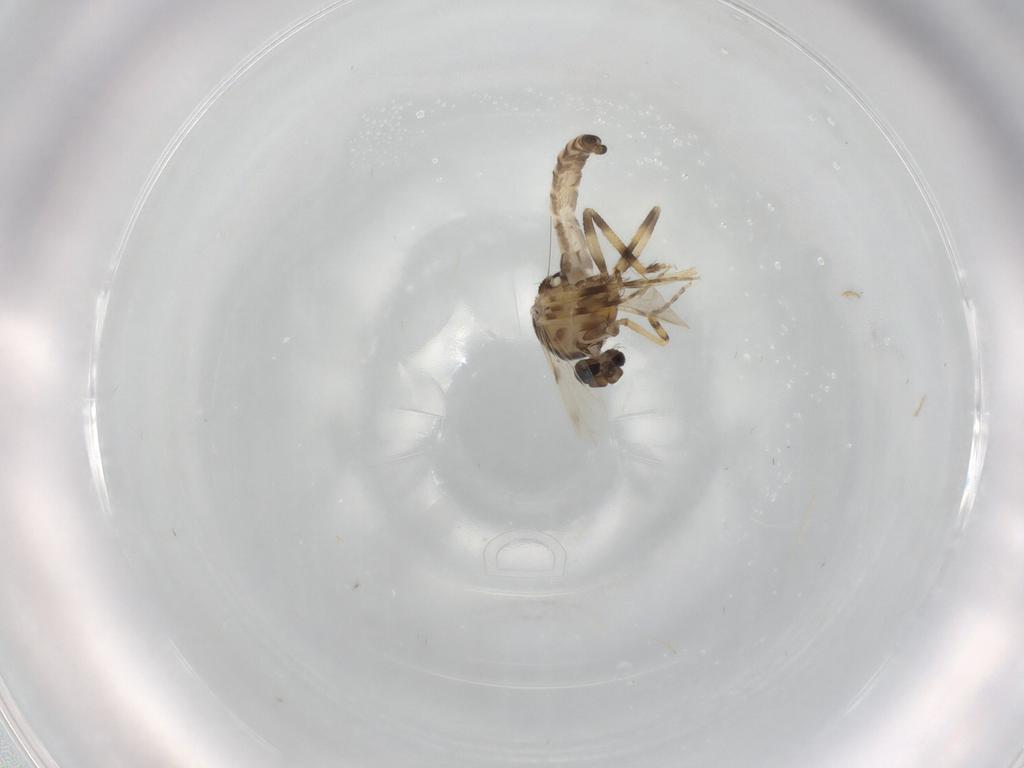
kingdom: Animalia
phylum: Arthropoda
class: Insecta
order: Diptera
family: Ceratopogonidae
